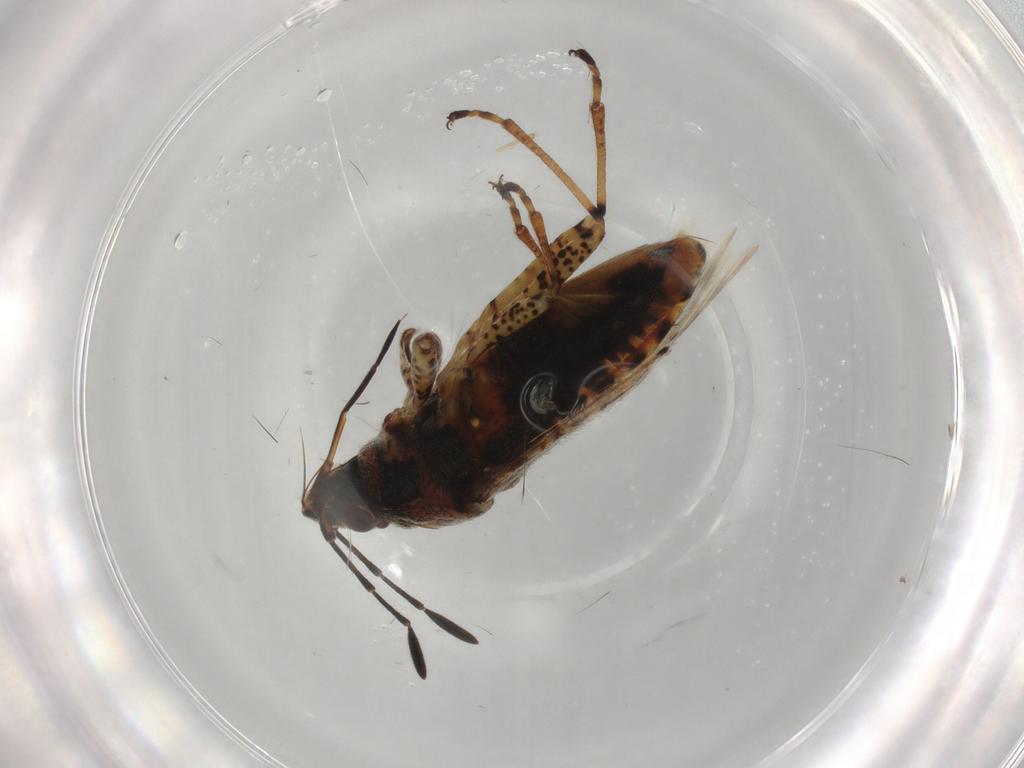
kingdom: Animalia
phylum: Arthropoda
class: Insecta
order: Hemiptera
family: Lygaeidae
